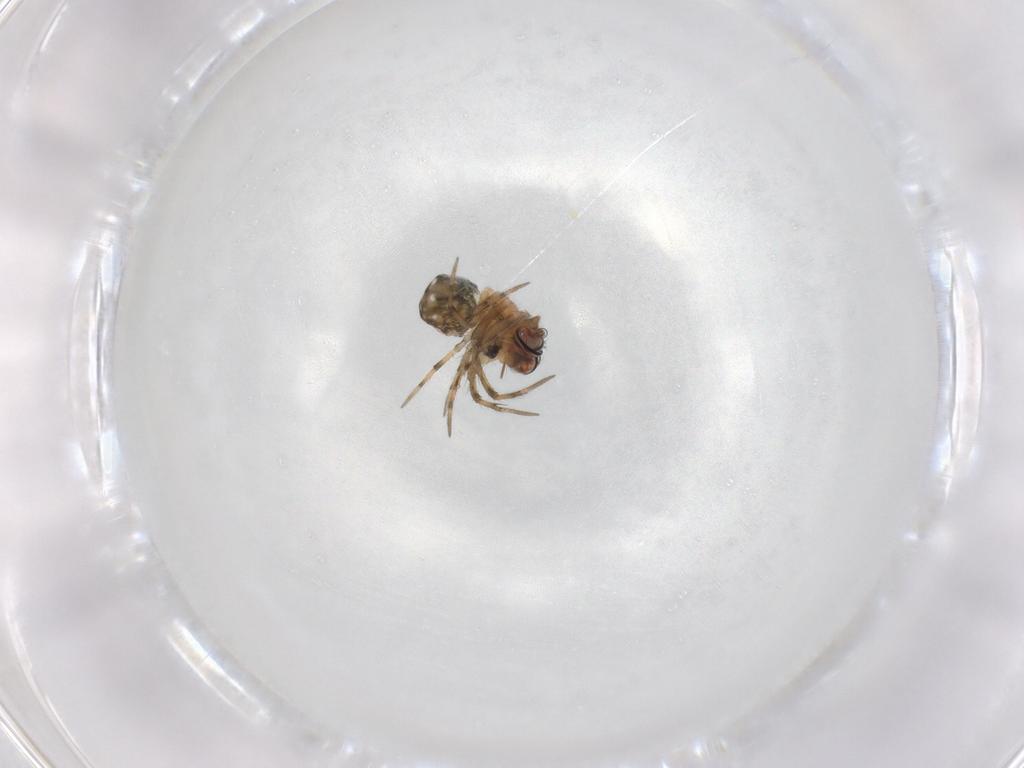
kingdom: Animalia
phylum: Arthropoda
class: Arachnida
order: Araneae
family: Mysmenidae
